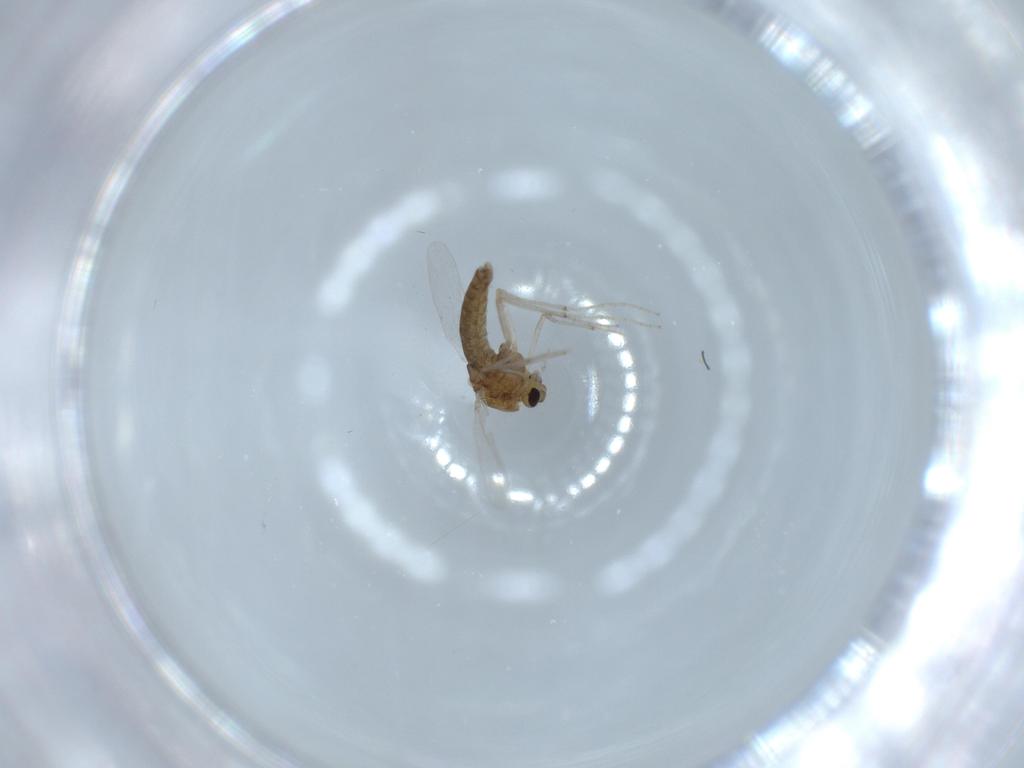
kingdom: Animalia
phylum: Arthropoda
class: Insecta
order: Diptera
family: Chironomidae
